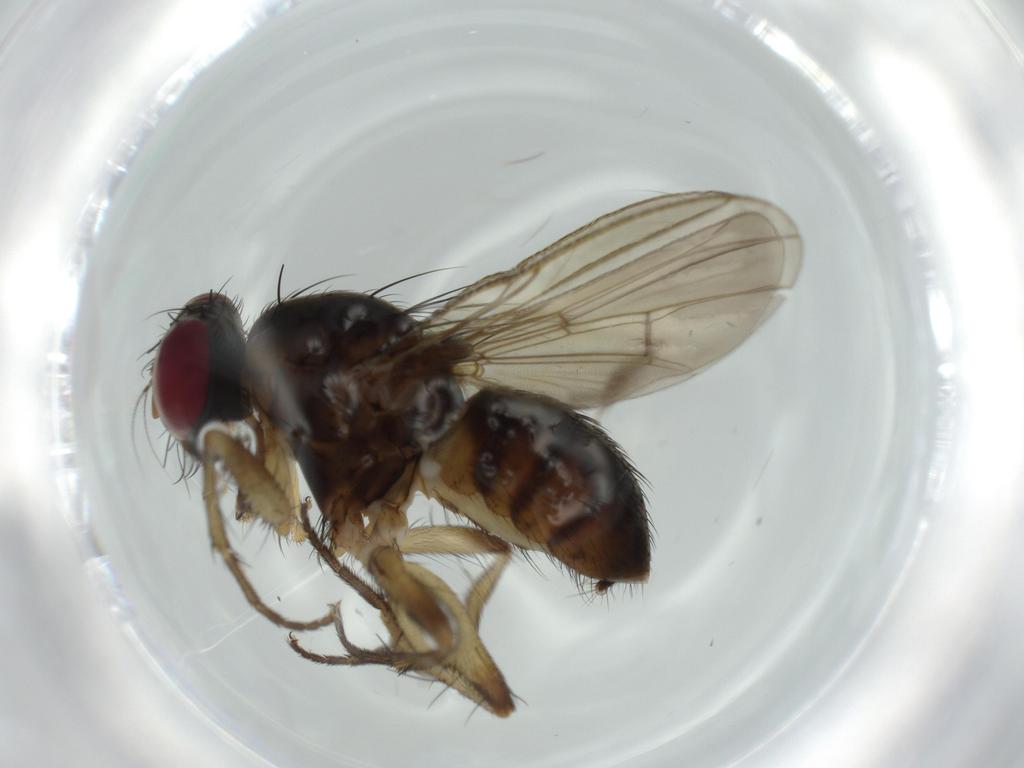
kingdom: Animalia
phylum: Arthropoda
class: Insecta
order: Diptera
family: Muscidae
